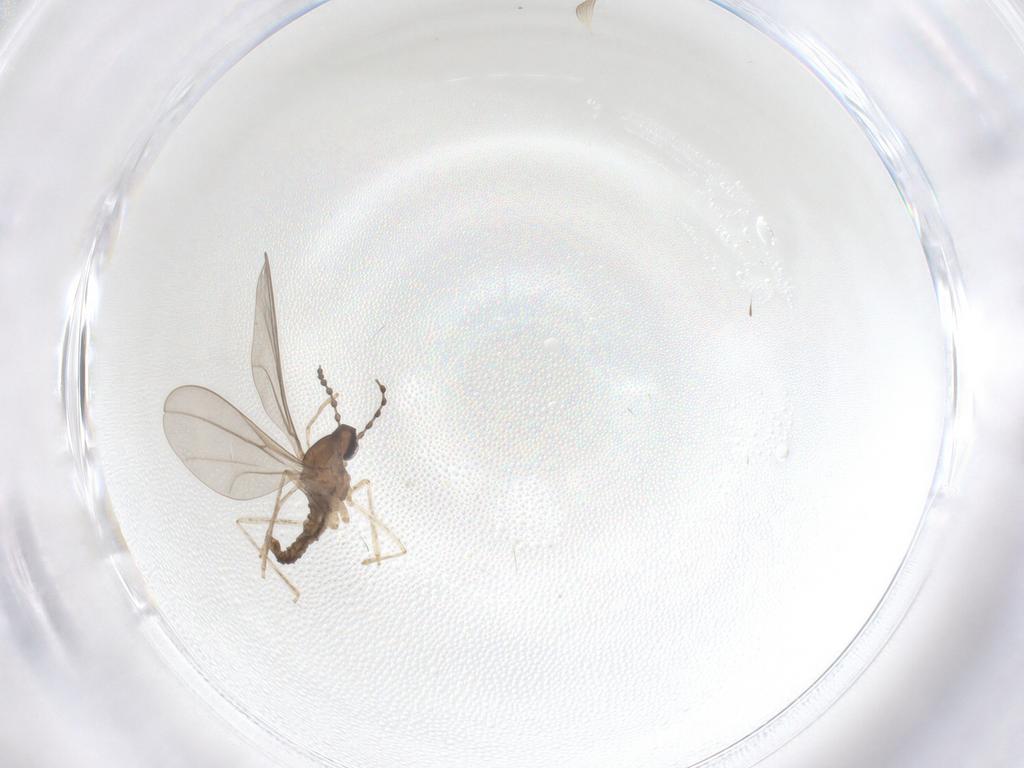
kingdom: Animalia
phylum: Arthropoda
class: Insecta
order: Diptera
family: Cecidomyiidae
